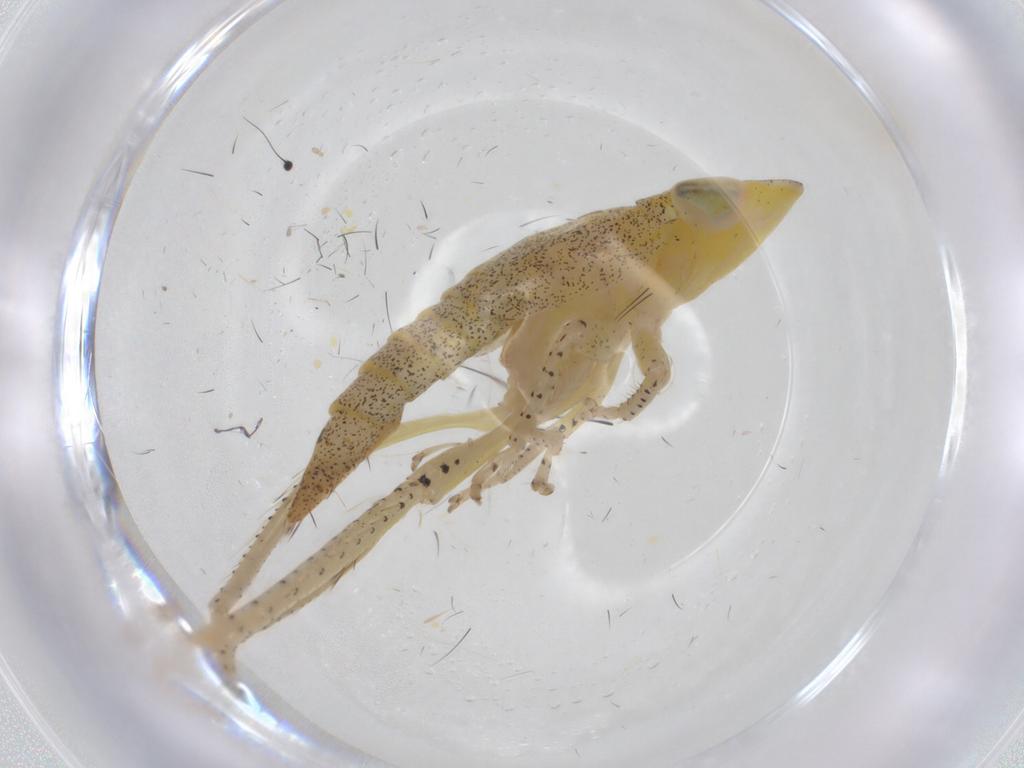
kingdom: Animalia
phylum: Arthropoda
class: Insecta
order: Hemiptera
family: Cicadellidae
